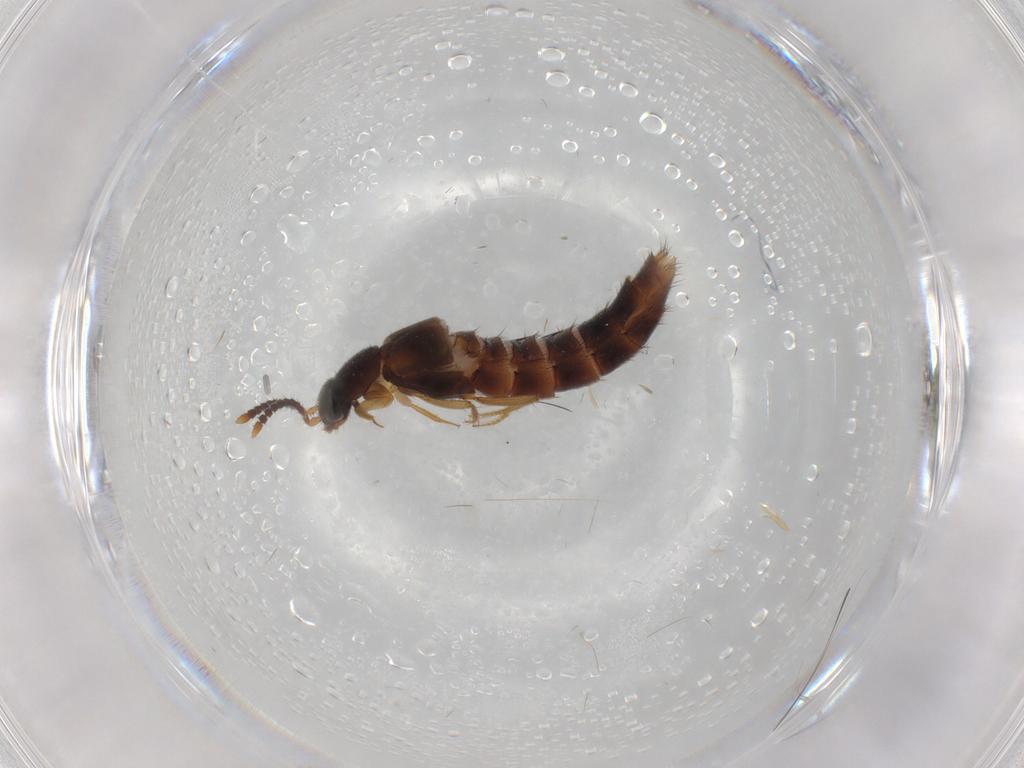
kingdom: Animalia
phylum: Arthropoda
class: Insecta
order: Coleoptera
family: Staphylinidae
